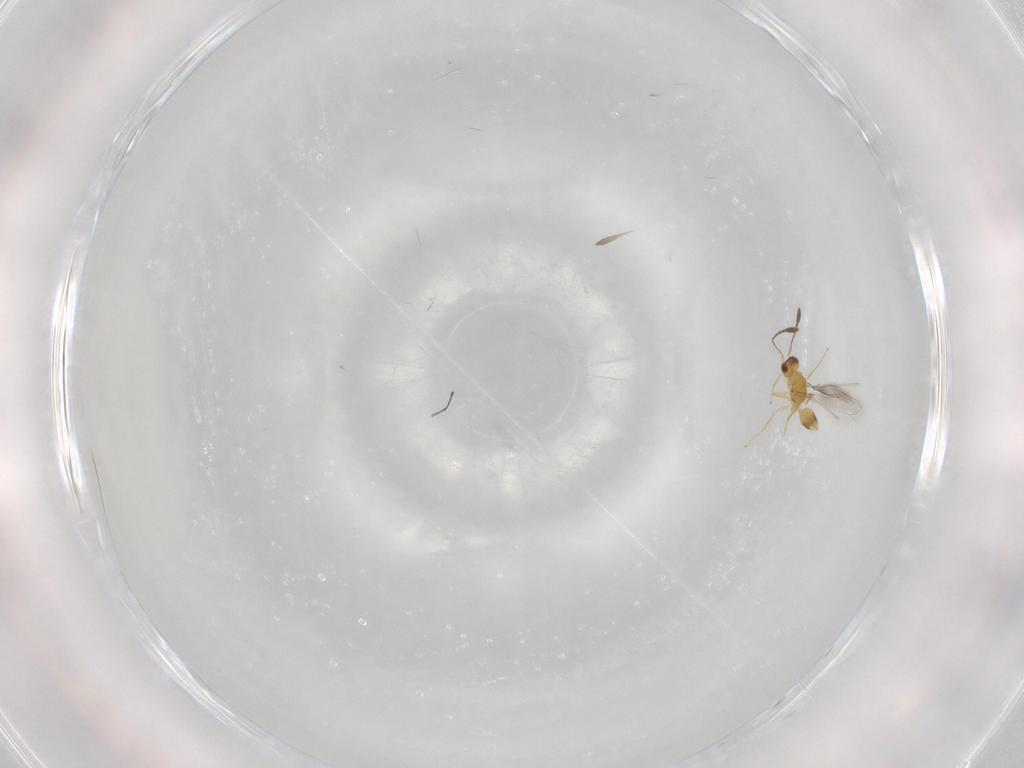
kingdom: Animalia
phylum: Arthropoda
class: Insecta
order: Hymenoptera
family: Mymaridae
